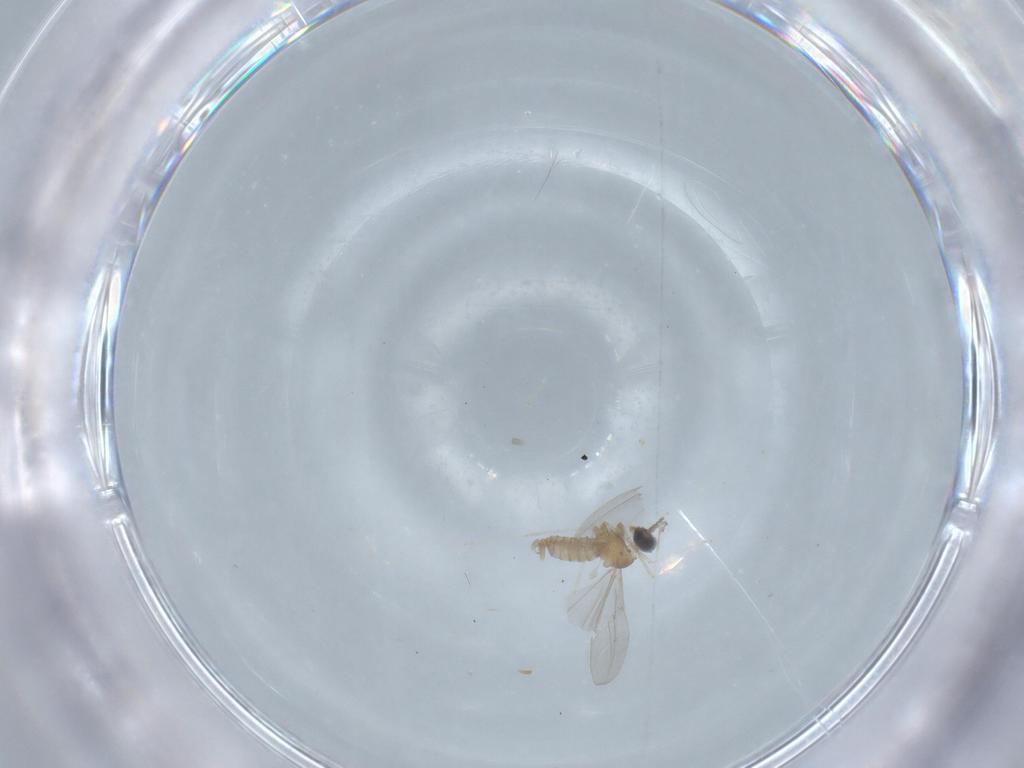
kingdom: Animalia
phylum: Arthropoda
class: Insecta
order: Diptera
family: Cecidomyiidae
